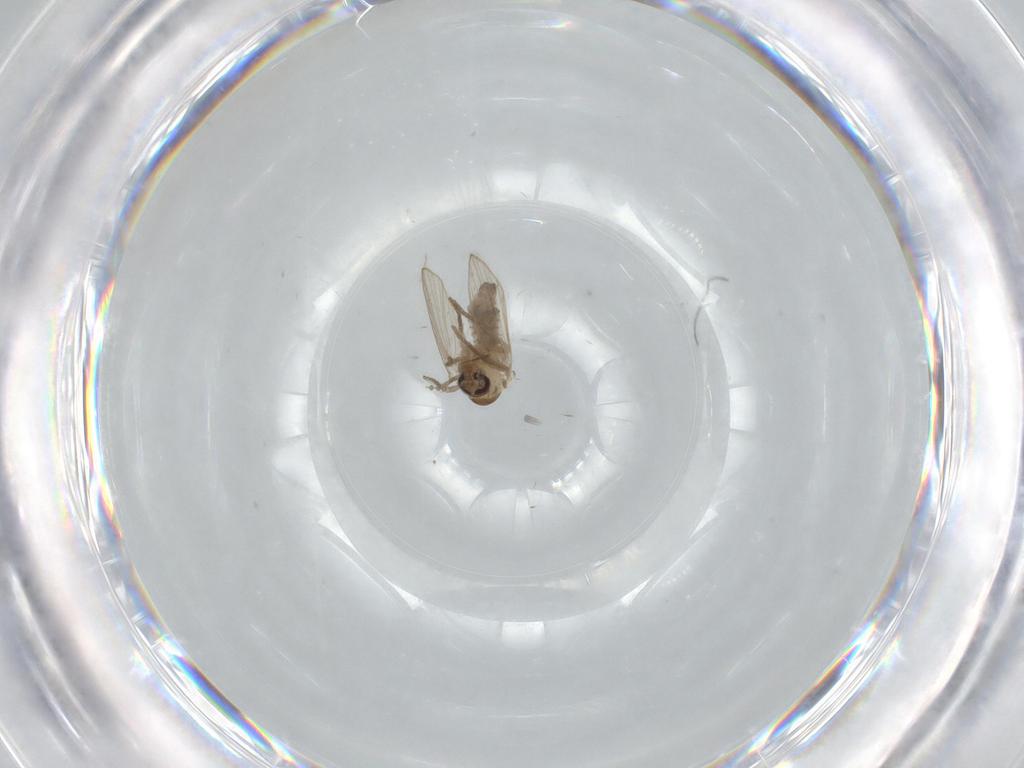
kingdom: Animalia
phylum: Arthropoda
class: Insecta
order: Diptera
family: Psychodidae
